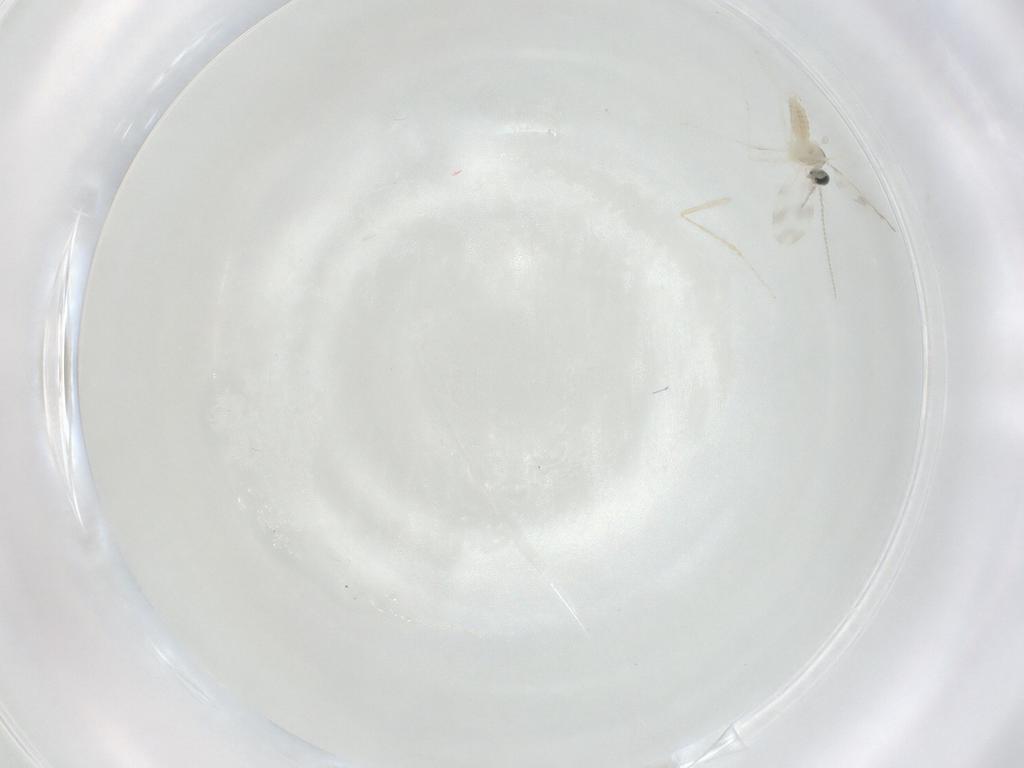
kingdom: Animalia
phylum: Arthropoda
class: Insecta
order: Diptera
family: Cecidomyiidae
